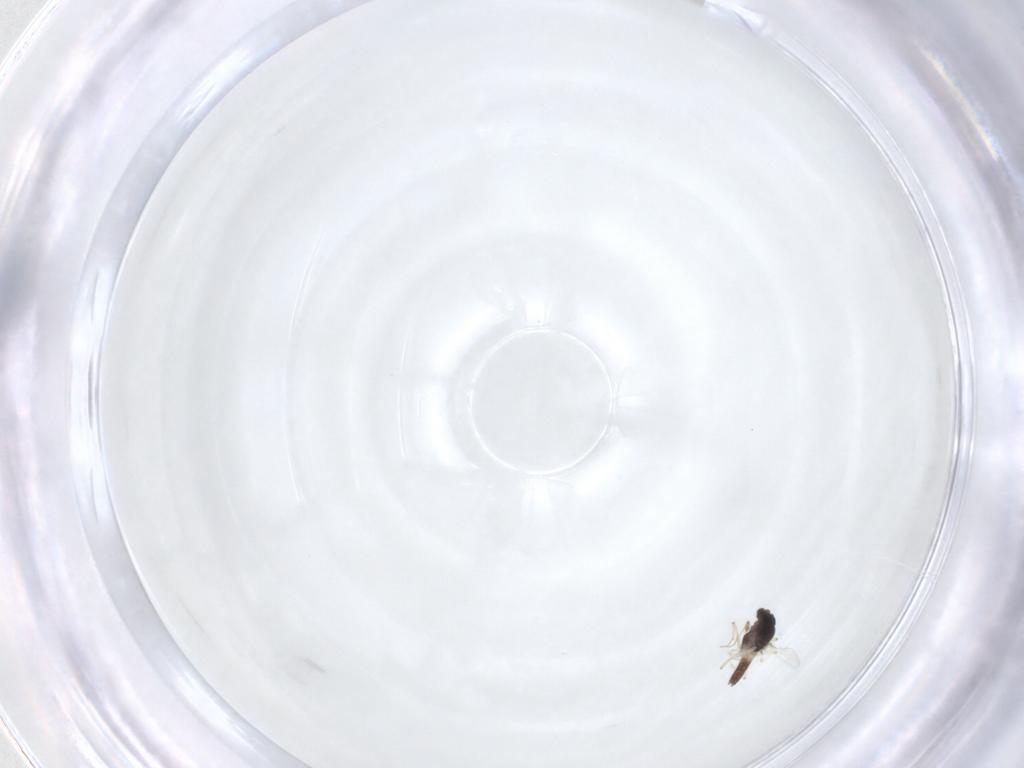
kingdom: Animalia
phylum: Arthropoda
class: Insecta
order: Diptera
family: Chironomidae
